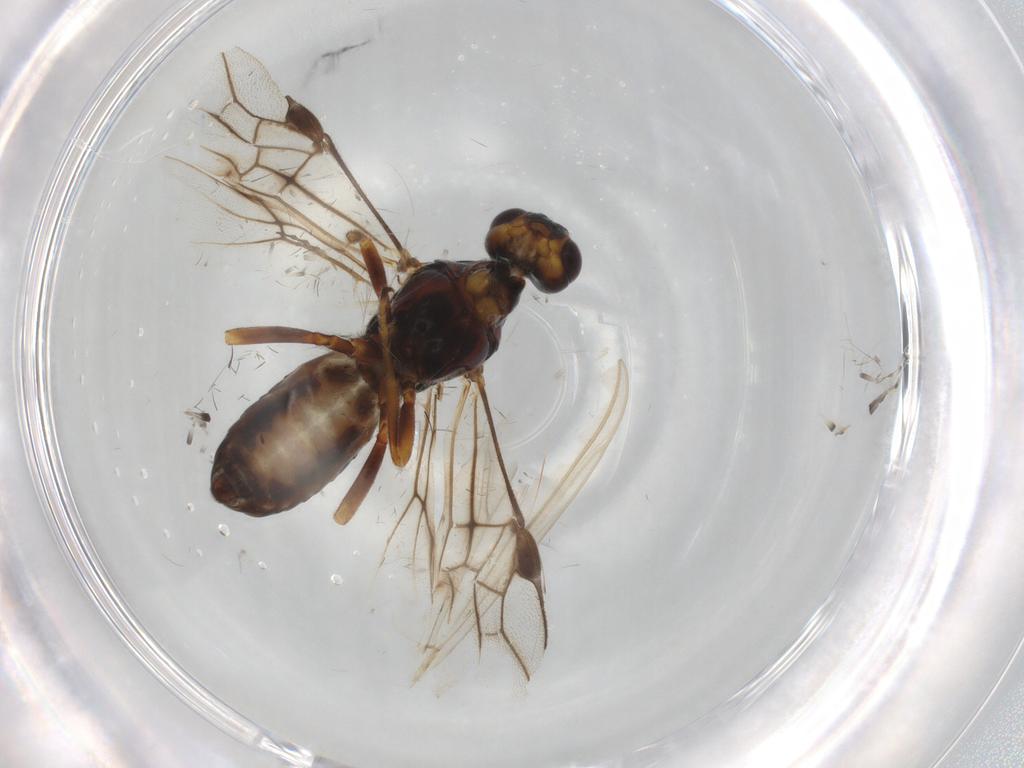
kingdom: Animalia
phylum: Arthropoda
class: Insecta
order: Hymenoptera
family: Braconidae
